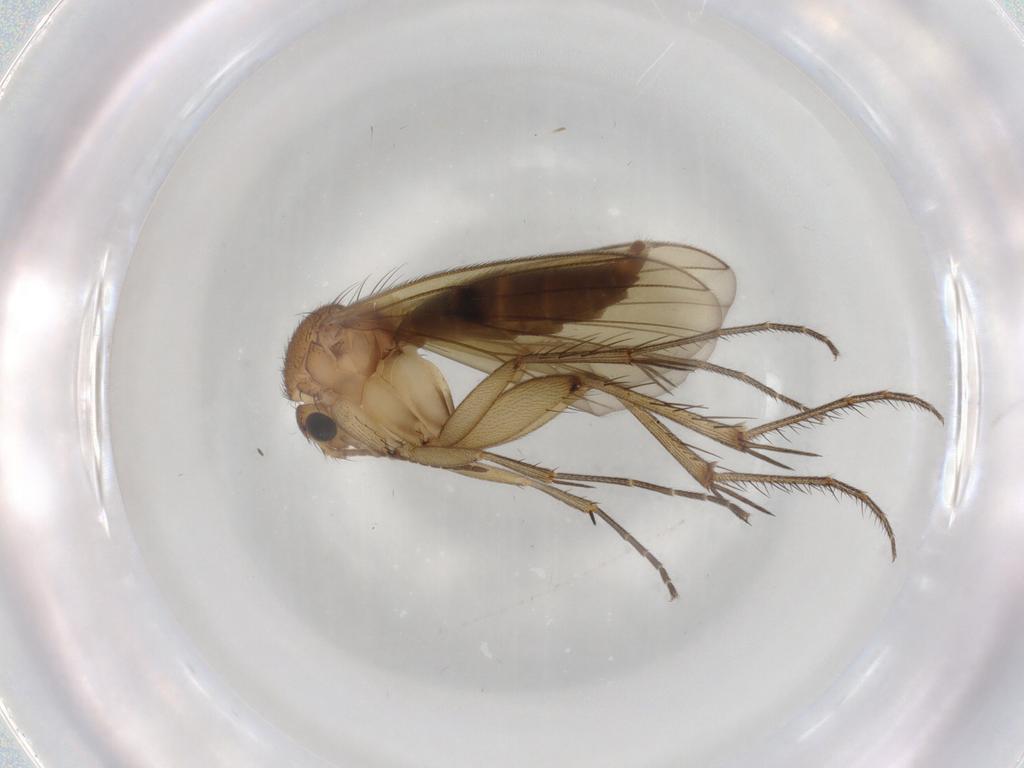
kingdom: Animalia
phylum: Arthropoda
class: Insecta
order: Diptera
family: Mycetophilidae
